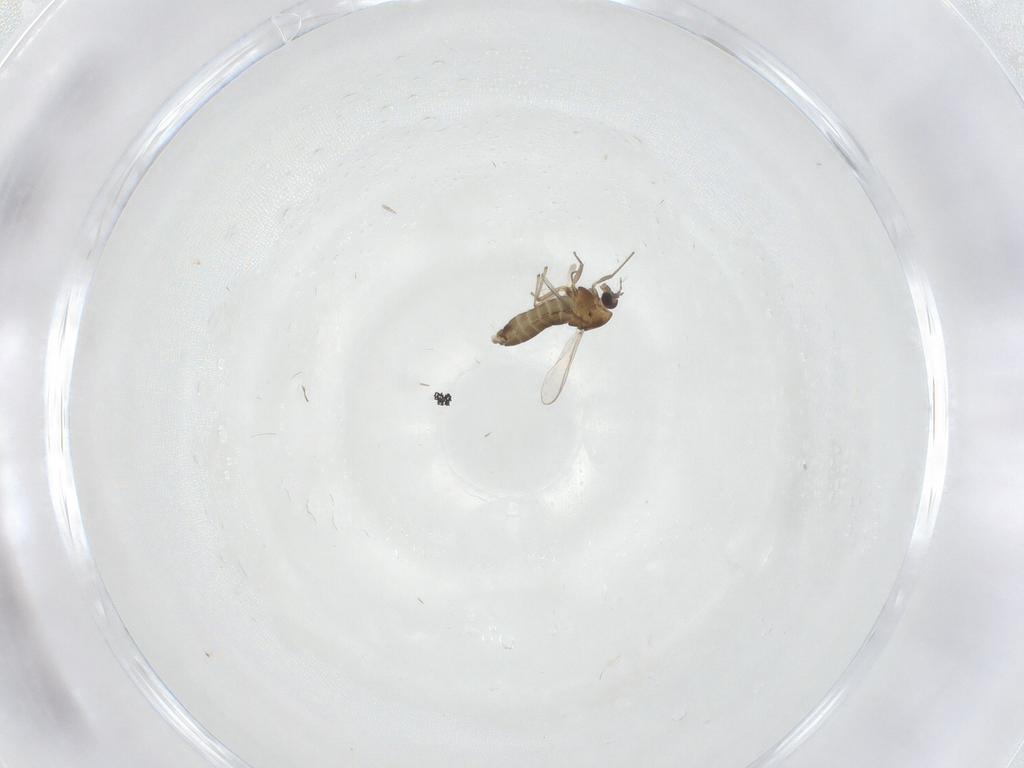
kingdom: Animalia
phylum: Arthropoda
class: Insecta
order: Diptera
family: Chironomidae
